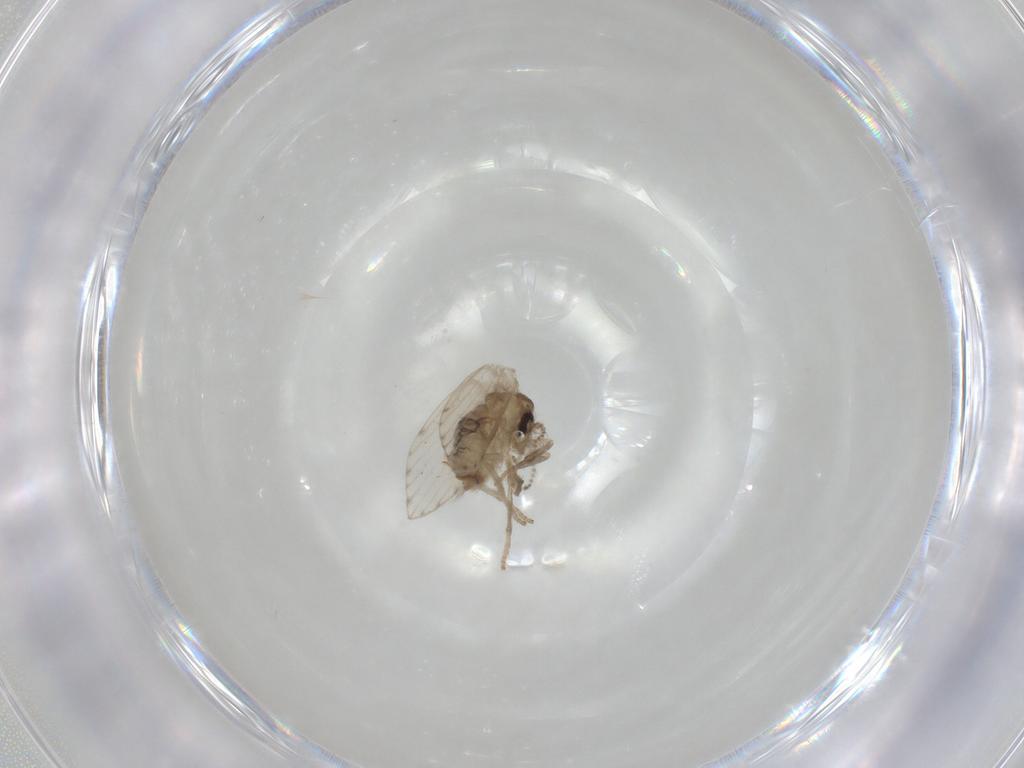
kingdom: Animalia
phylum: Arthropoda
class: Insecta
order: Diptera
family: Psychodidae
